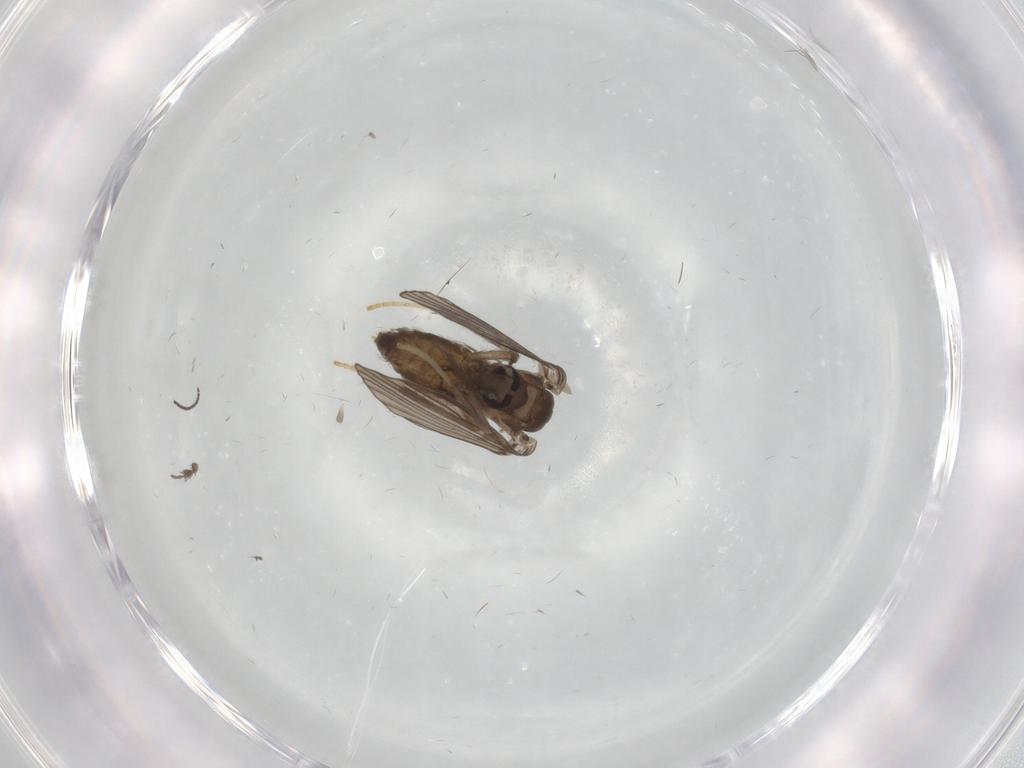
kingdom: Animalia
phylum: Arthropoda
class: Insecta
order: Diptera
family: Psychodidae
